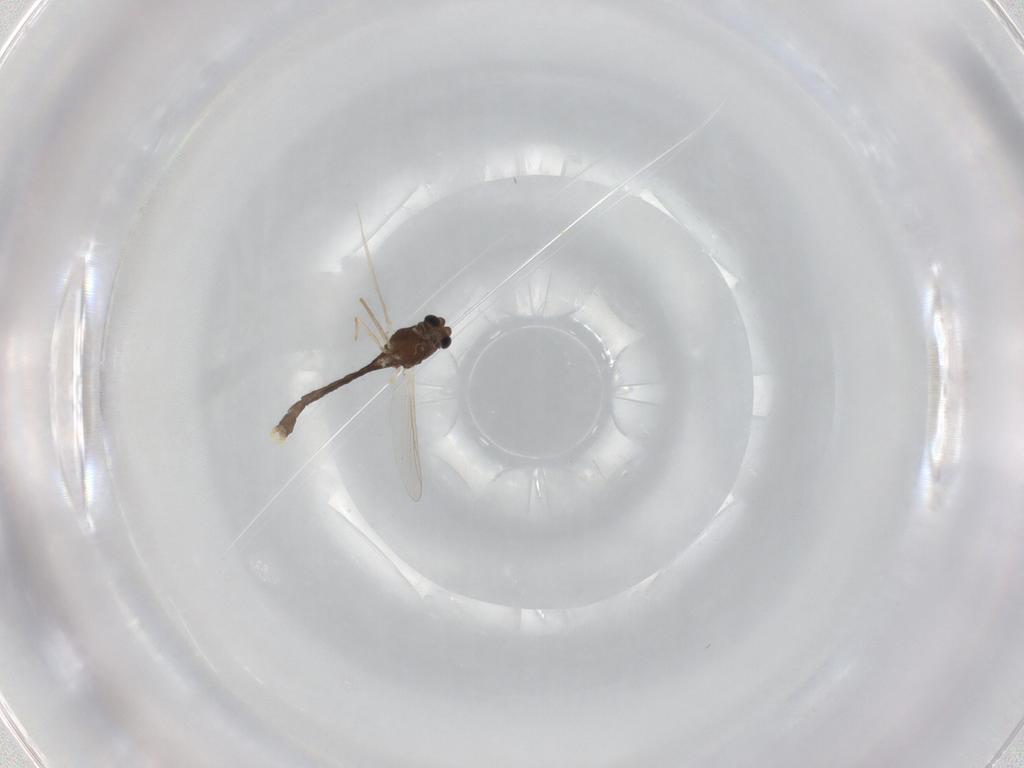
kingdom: Animalia
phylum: Arthropoda
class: Insecta
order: Diptera
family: Chironomidae
